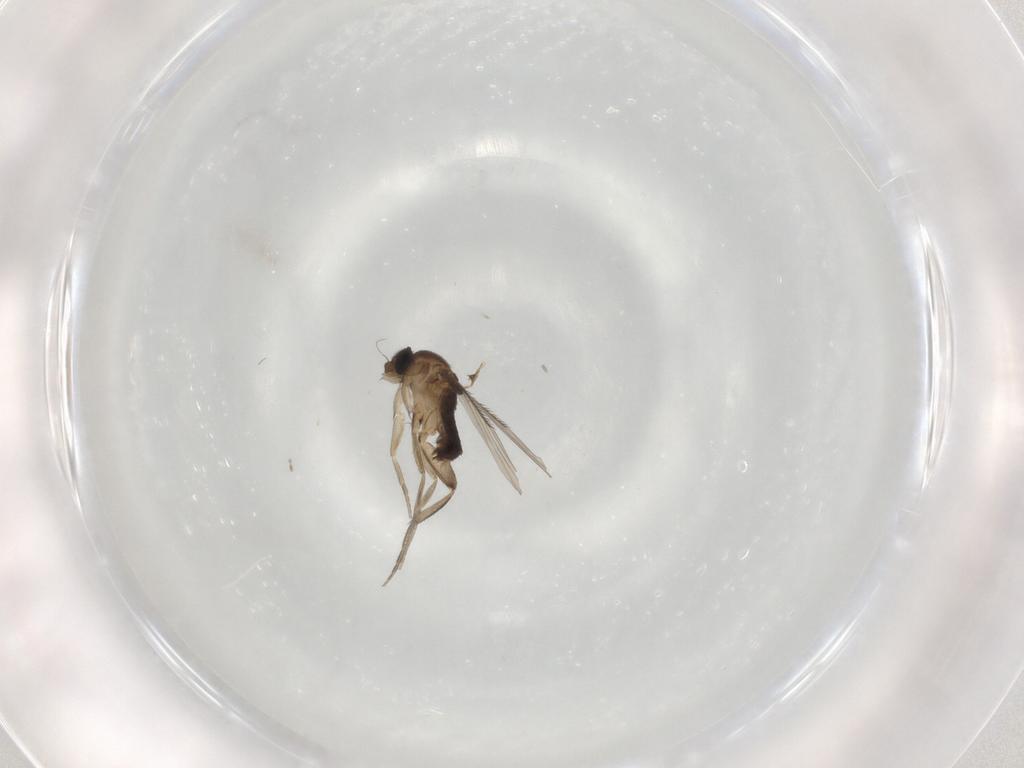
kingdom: Animalia
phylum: Arthropoda
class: Insecta
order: Diptera
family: Phoridae
